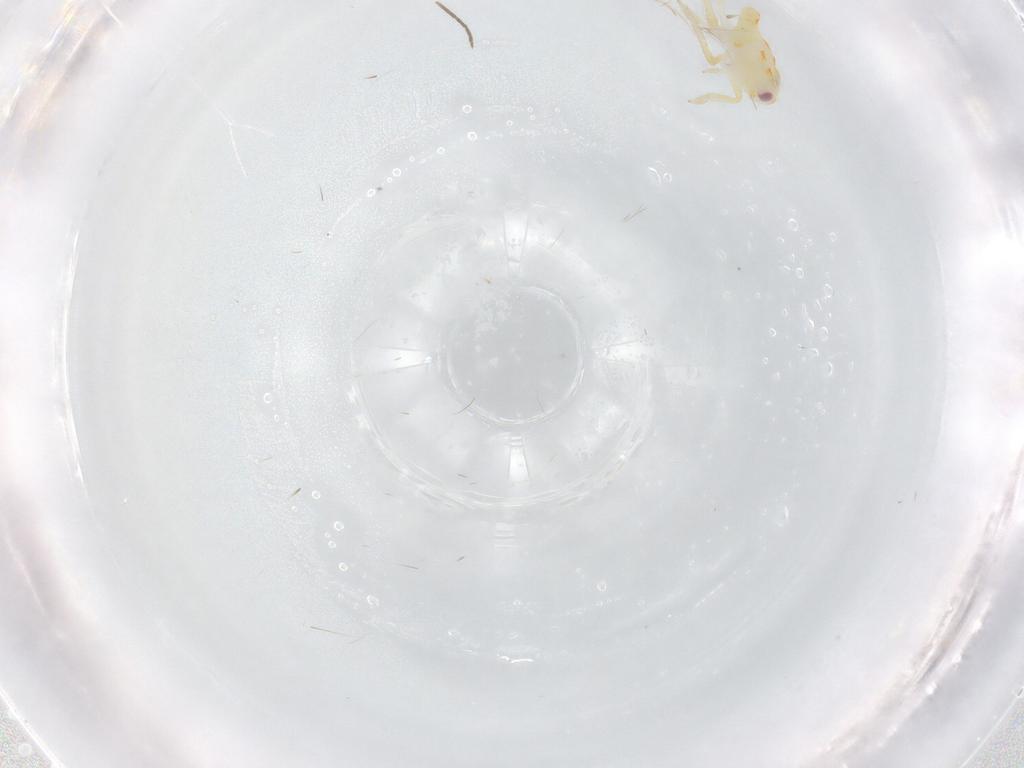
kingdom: Animalia
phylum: Arthropoda
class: Insecta
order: Hemiptera
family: Tropiduchidae
